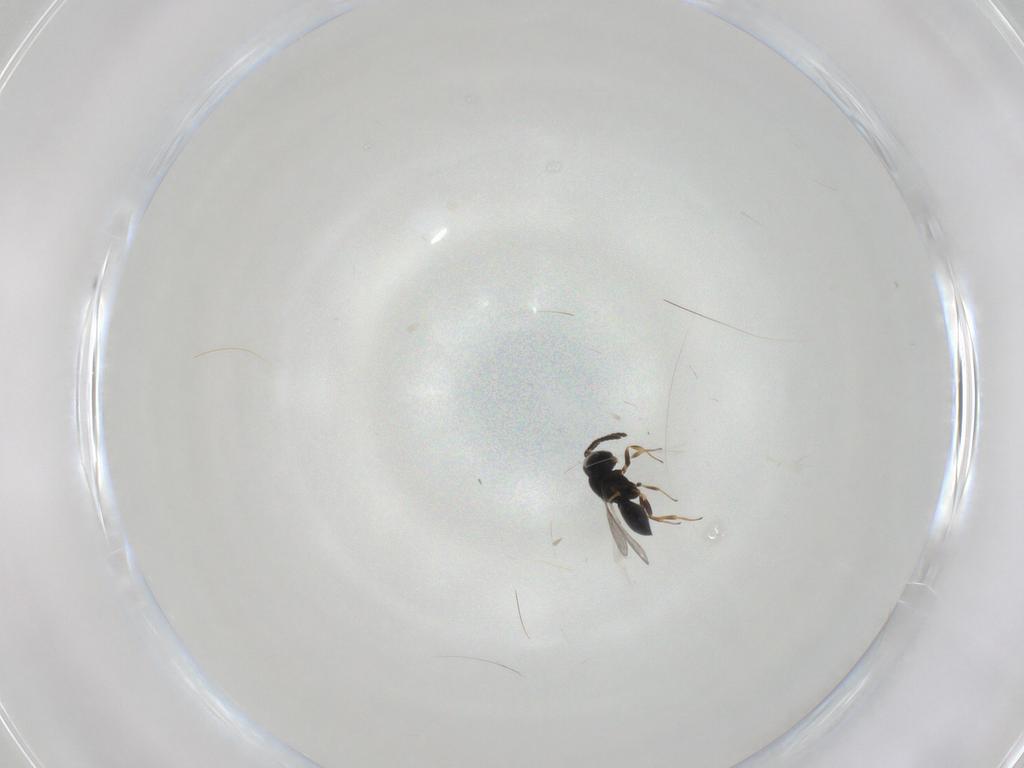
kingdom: Animalia
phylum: Arthropoda
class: Insecta
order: Hymenoptera
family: Scelionidae
